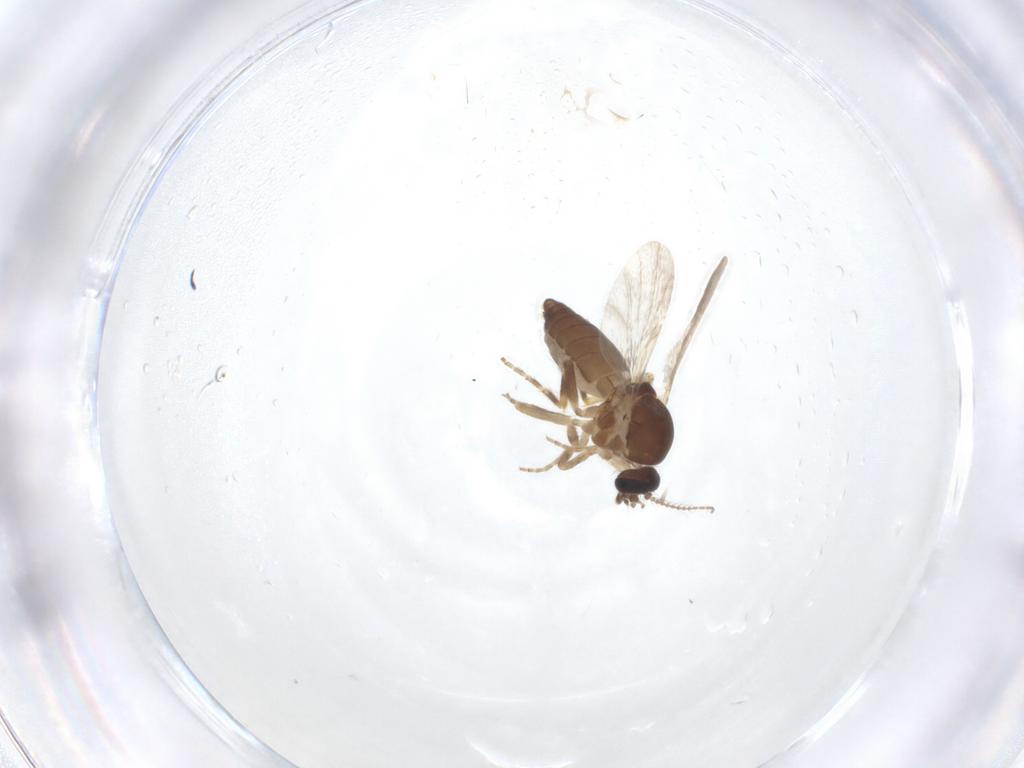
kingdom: Animalia
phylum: Arthropoda
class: Insecta
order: Diptera
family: Ceratopogonidae
